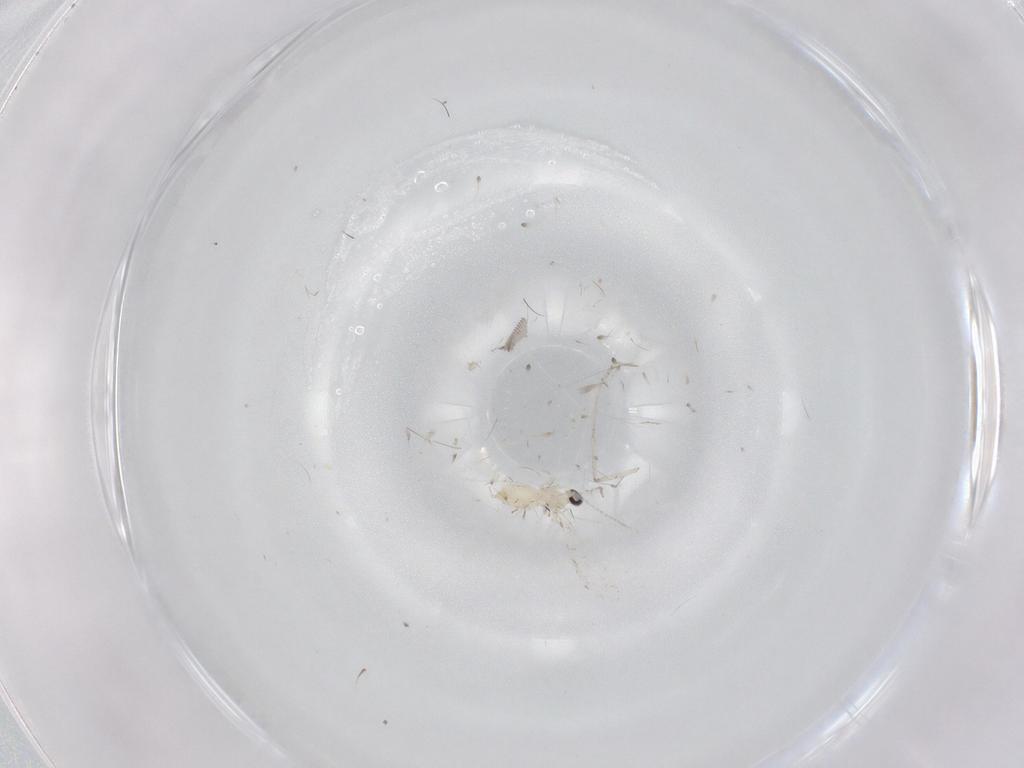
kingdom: Animalia
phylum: Arthropoda
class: Insecta
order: Diptera
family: Cecidomyiidae
